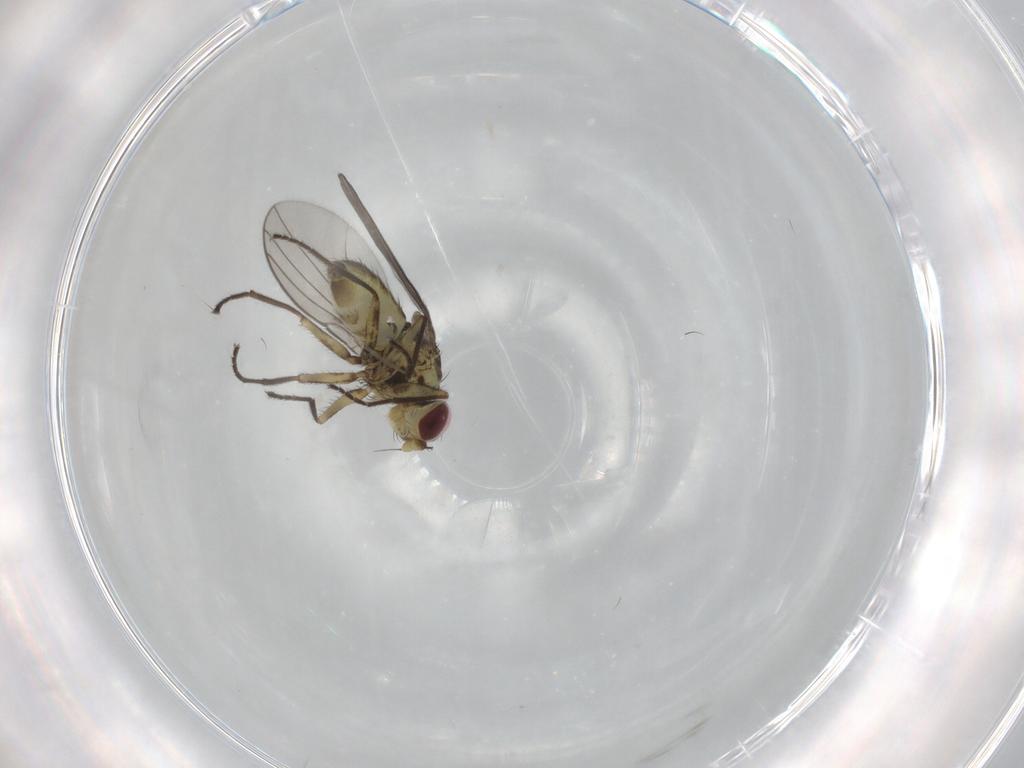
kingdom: Animalia
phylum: Arthropoda
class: Insecta
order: Diptera
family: Agromyzidae
